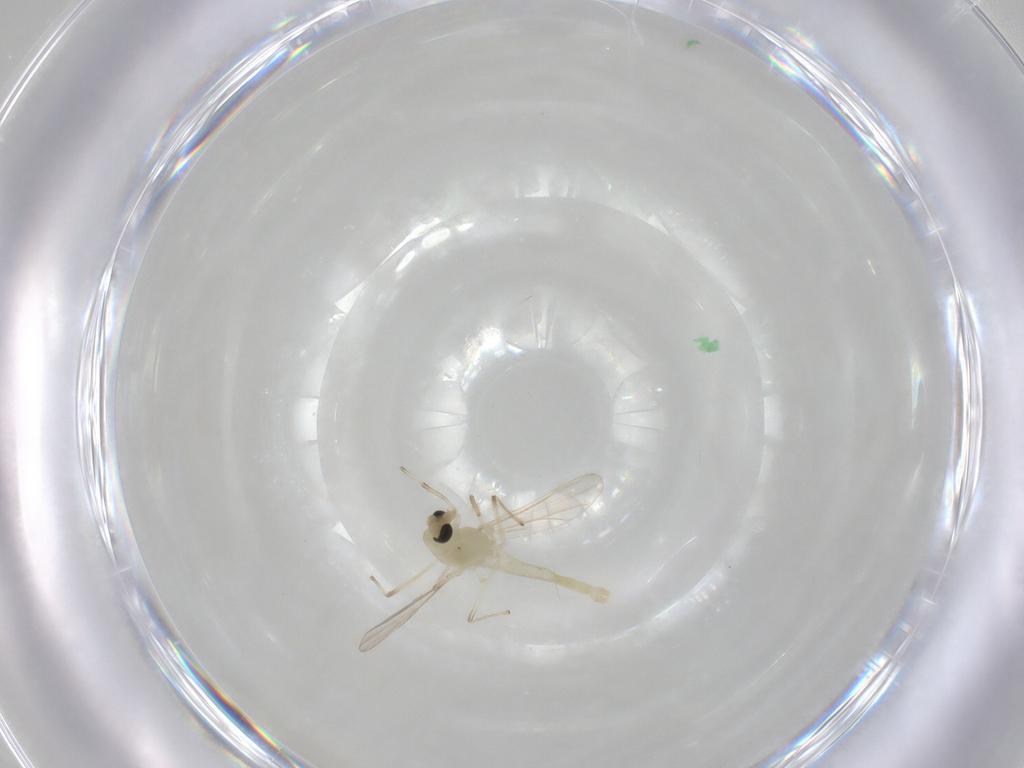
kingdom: Animalia
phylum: Arthropoda
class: Insecta
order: Diptera
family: Chironomidae
